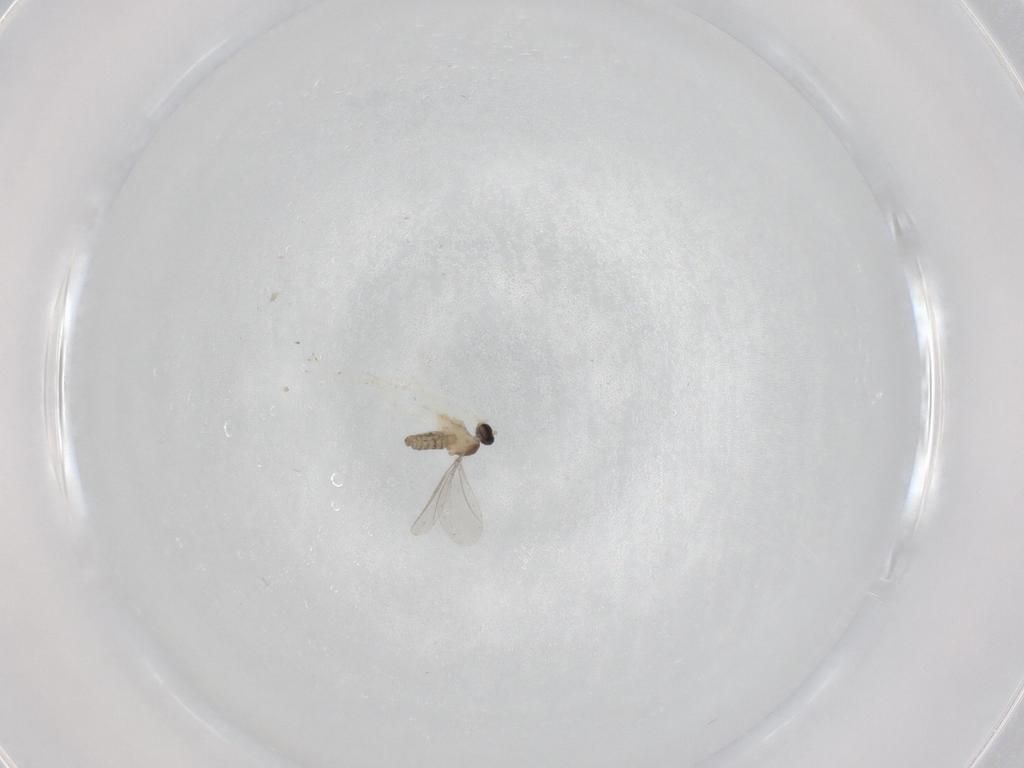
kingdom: Animalia
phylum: Arthropoda
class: Insecta
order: Diptera
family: Cecidomyiidae
